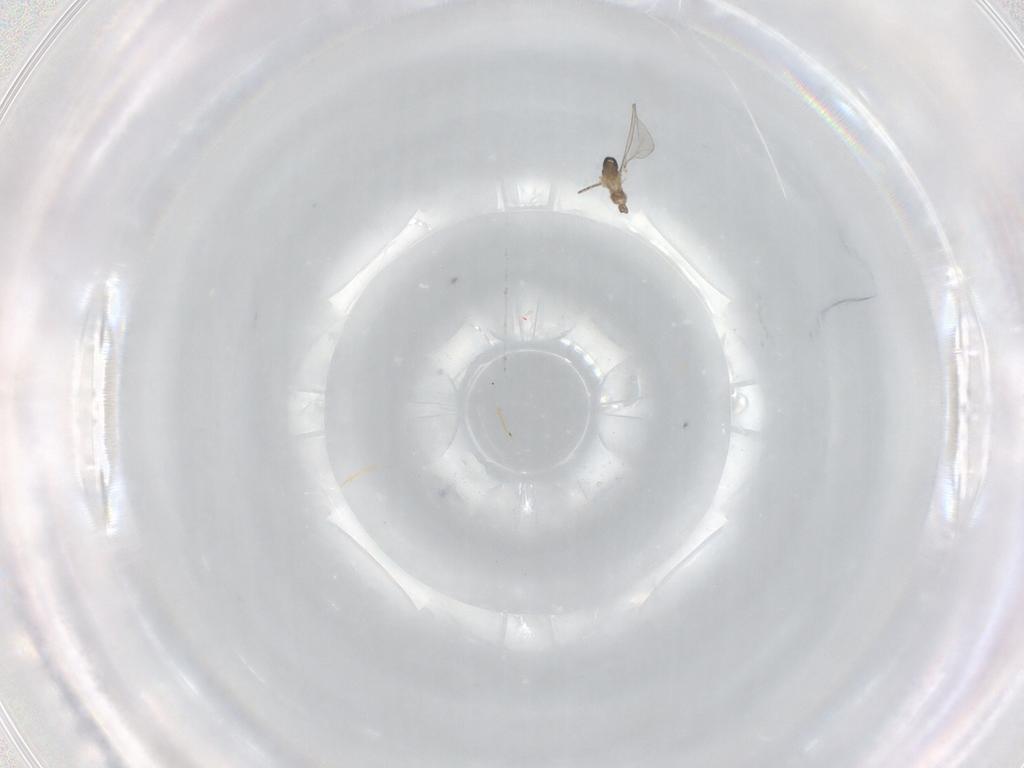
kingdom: Animalia
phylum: Arthropoda
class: Insecta
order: Diptera
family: Cecidomyiidae
